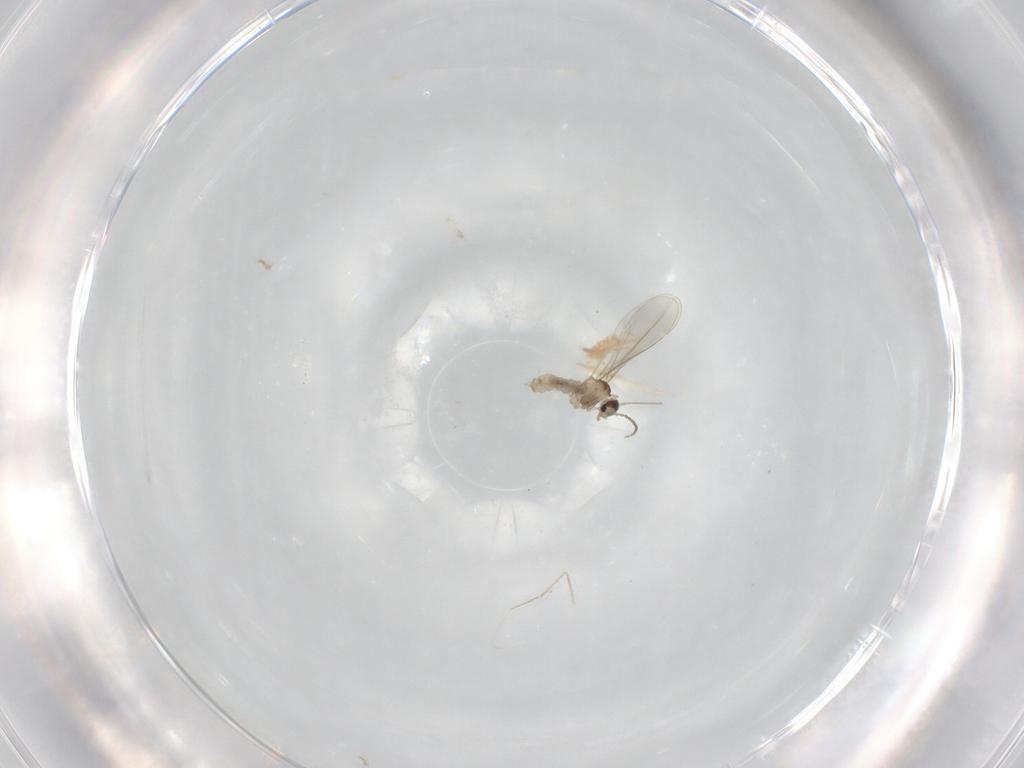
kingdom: Animalia
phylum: Arthropoda
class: Insecta
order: Diptera
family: Cecidomyiidae
